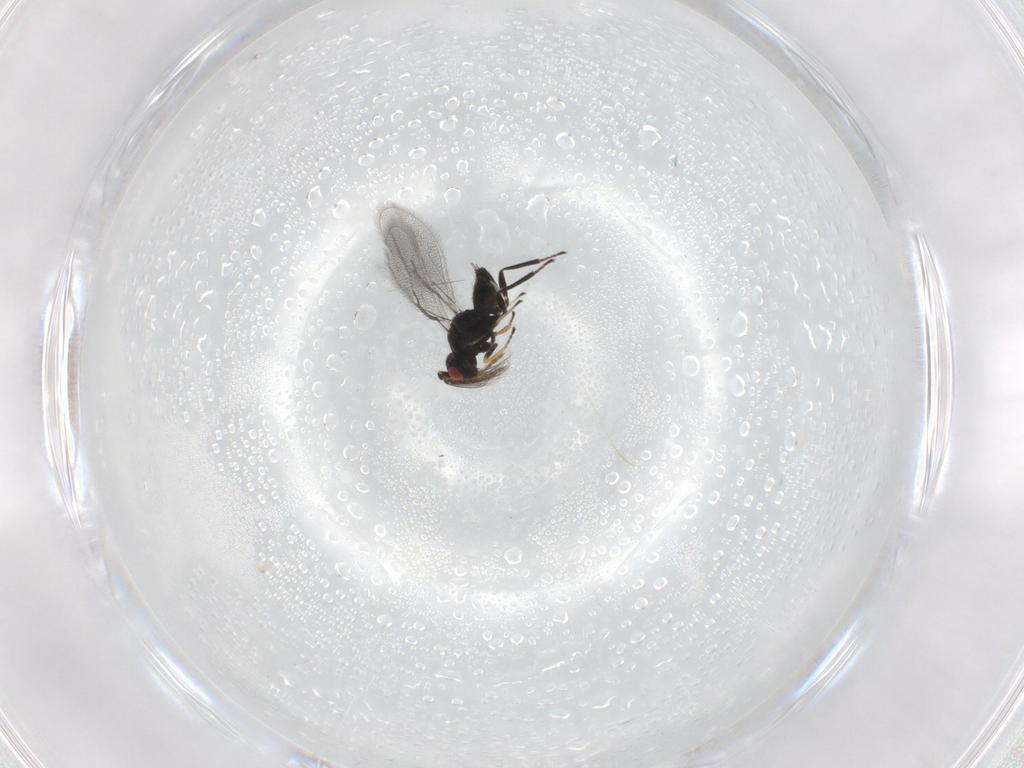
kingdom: Animalia
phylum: Arthropoda
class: Insecta
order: Hymenoptera
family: Eulophidae
